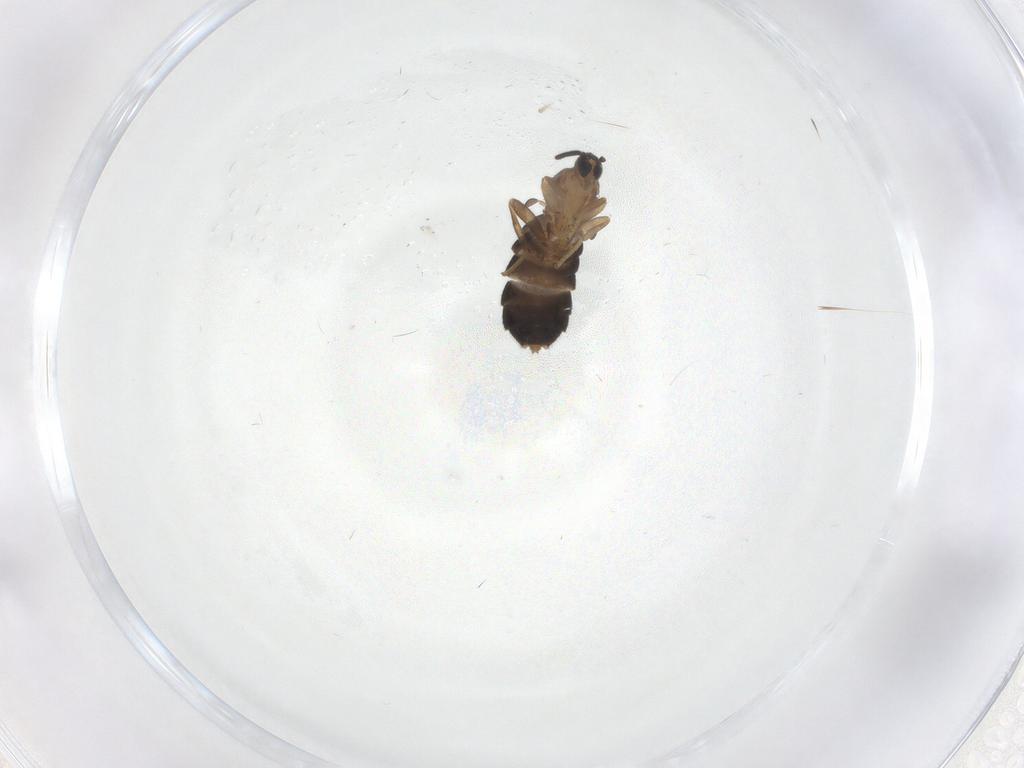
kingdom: Animalia
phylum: Arthropoda
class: Insecta
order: Diptera
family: Scatopsidae
